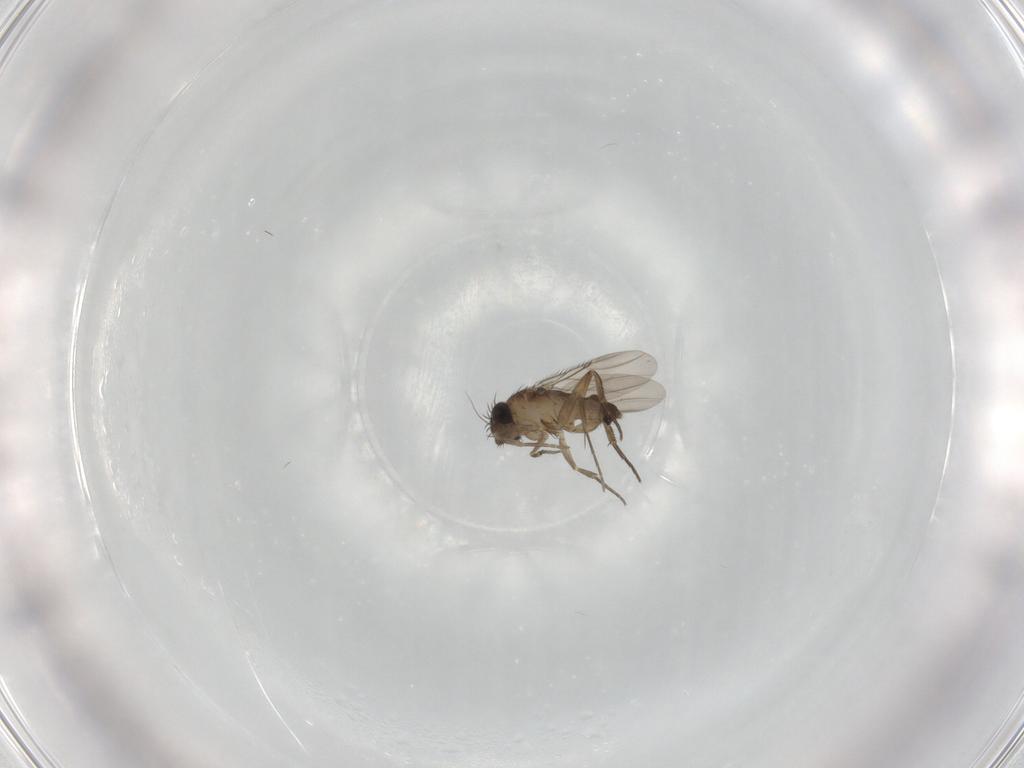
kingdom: Animalia
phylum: Arthropoda
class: Insecta
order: Diptera
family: Phoridae
